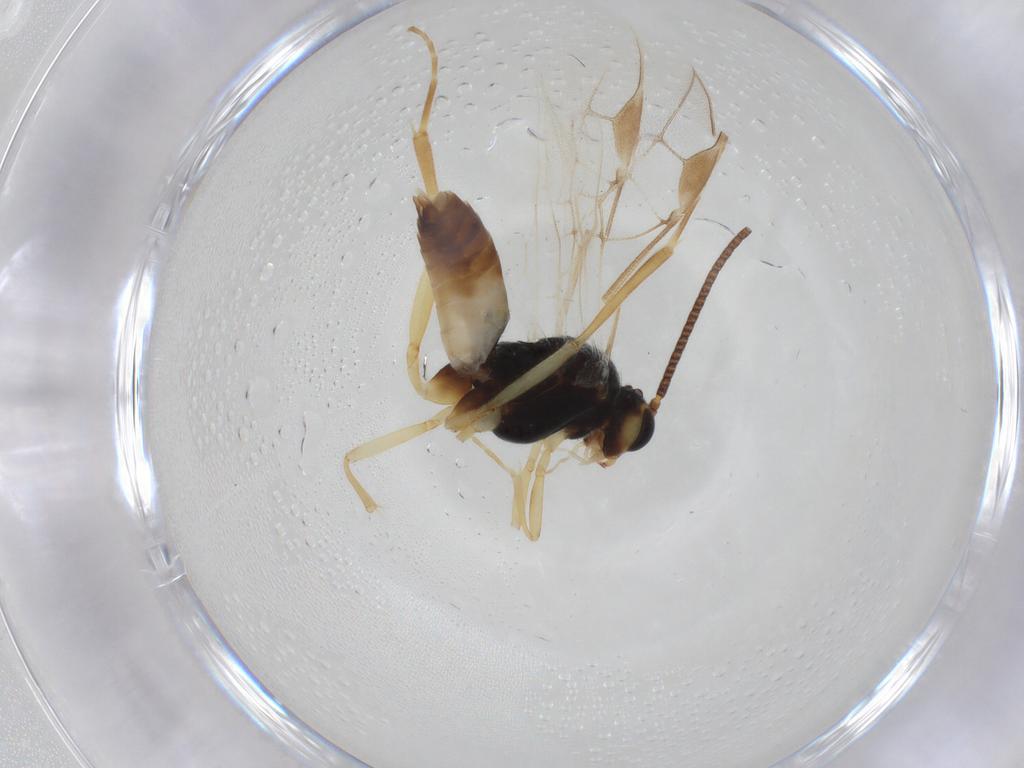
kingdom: Animalia
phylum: Arthropoda
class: Insecta
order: Hymenoptera
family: Braconidae
